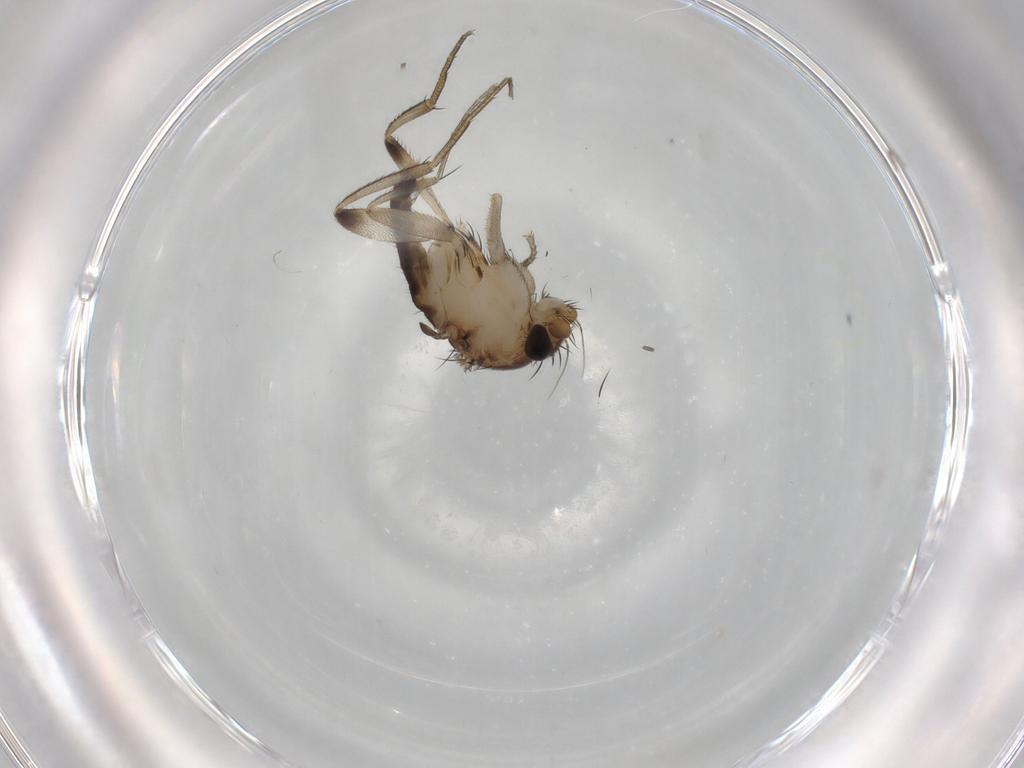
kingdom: Animalia
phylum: Arthropoda
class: Insecta
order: Diptera
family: Phoridae
